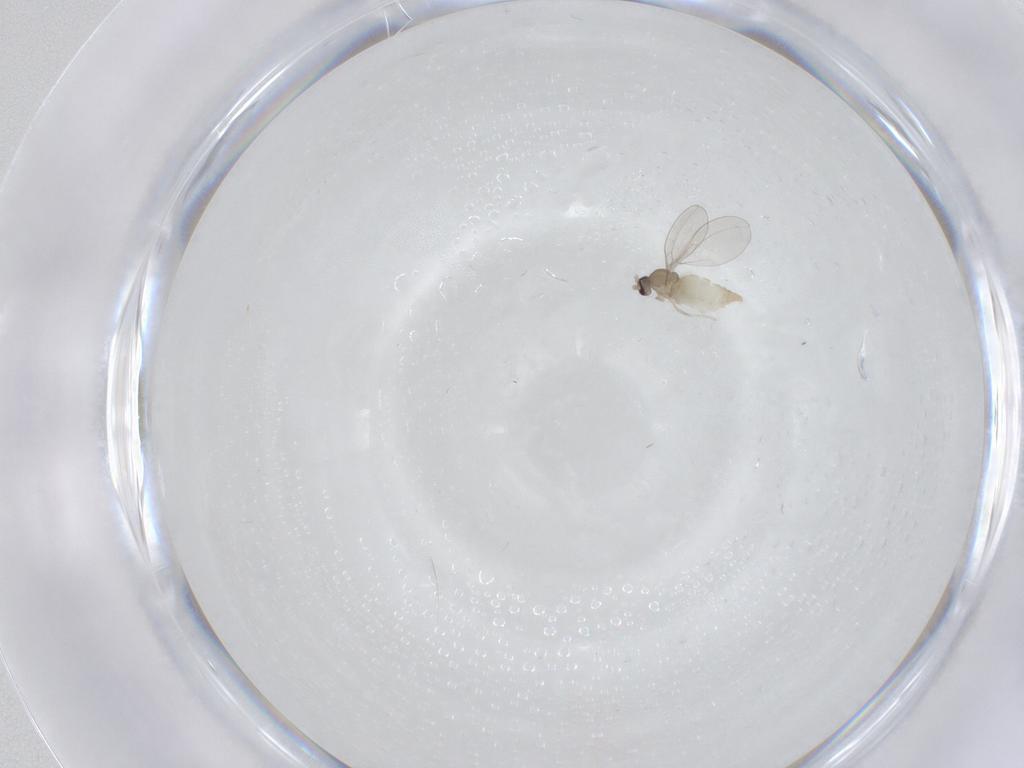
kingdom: Animalia
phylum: Arthropoda
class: Insecta
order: Diptera
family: Cecidomyiidae
